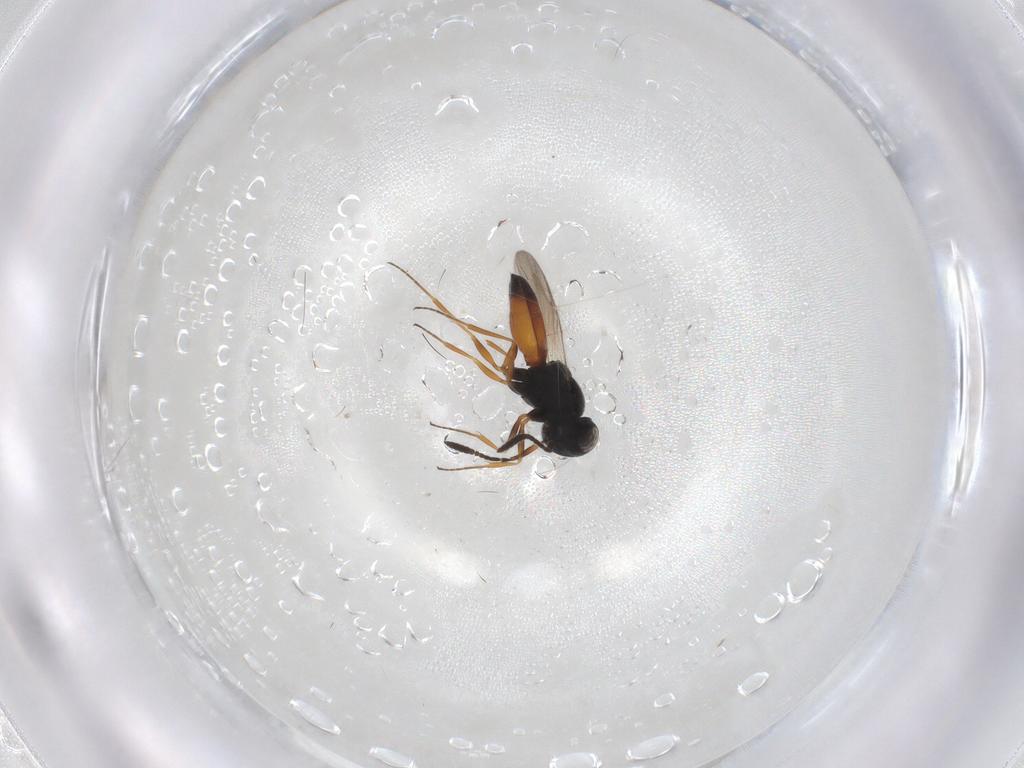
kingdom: Animalia
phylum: Arthropoda
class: Insecta
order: Hymenoptera
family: Scelionidae
